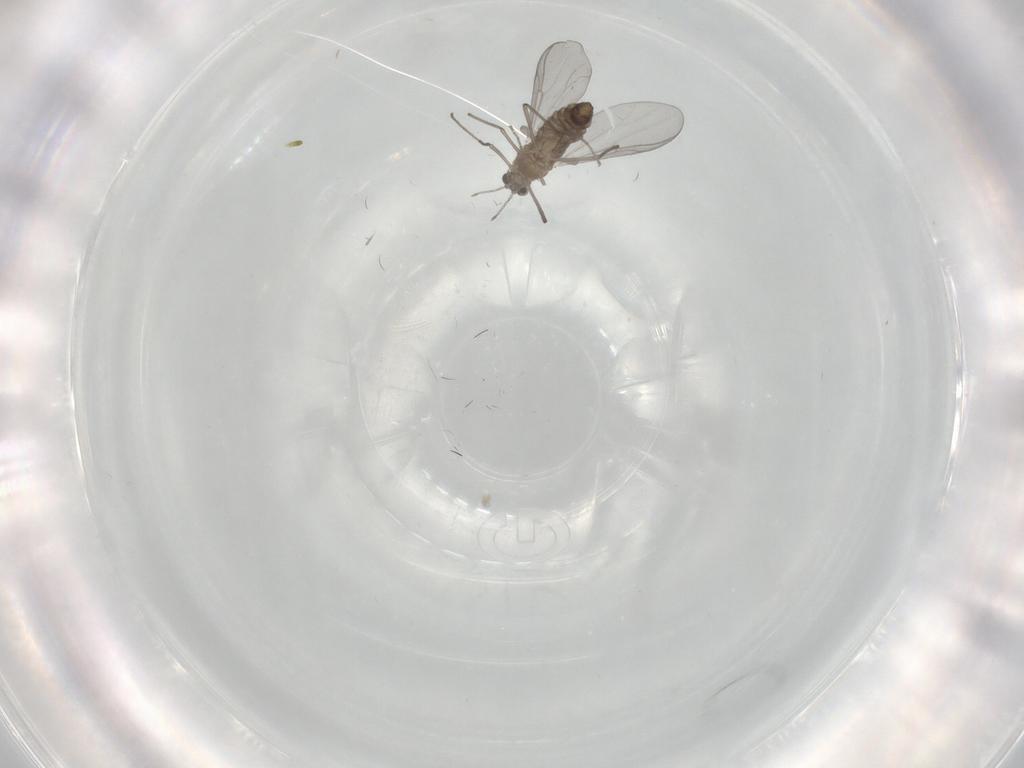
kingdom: Animalia
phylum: Arthropoda
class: Insecta
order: Diptera
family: Chironomidae
